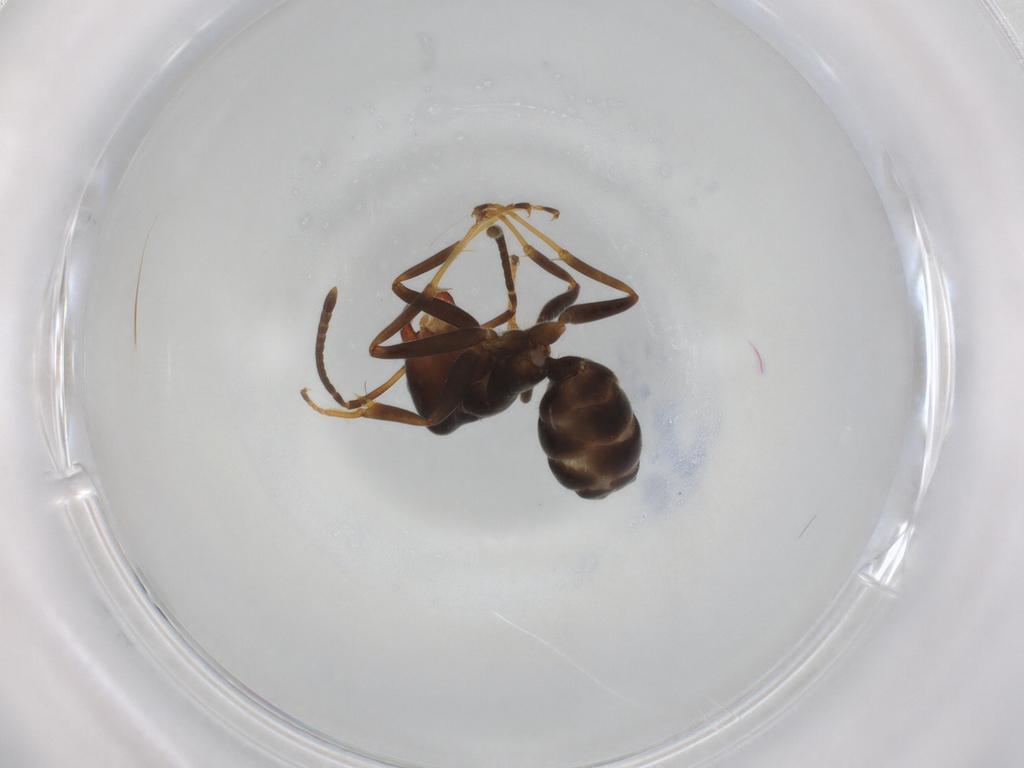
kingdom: Animalia
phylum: Arthropoda
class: Insecta
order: Hymenoptera
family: Formicidae
